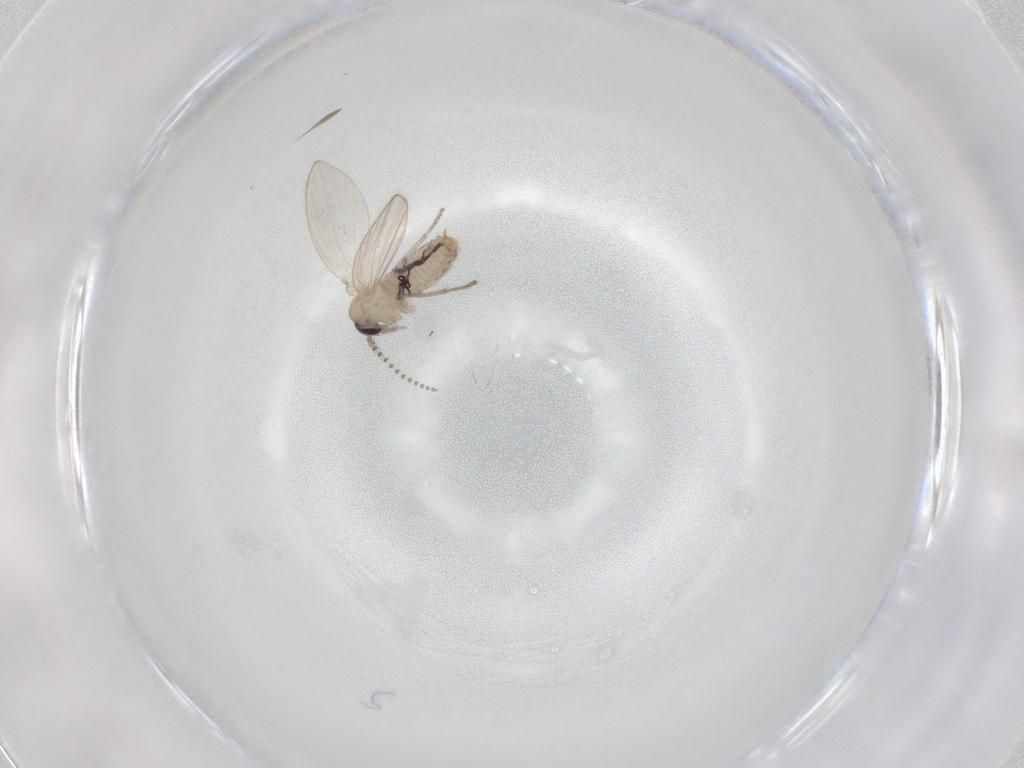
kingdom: Animalia
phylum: Arthropoda
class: Insecta
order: Diptera
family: Psychodidae
